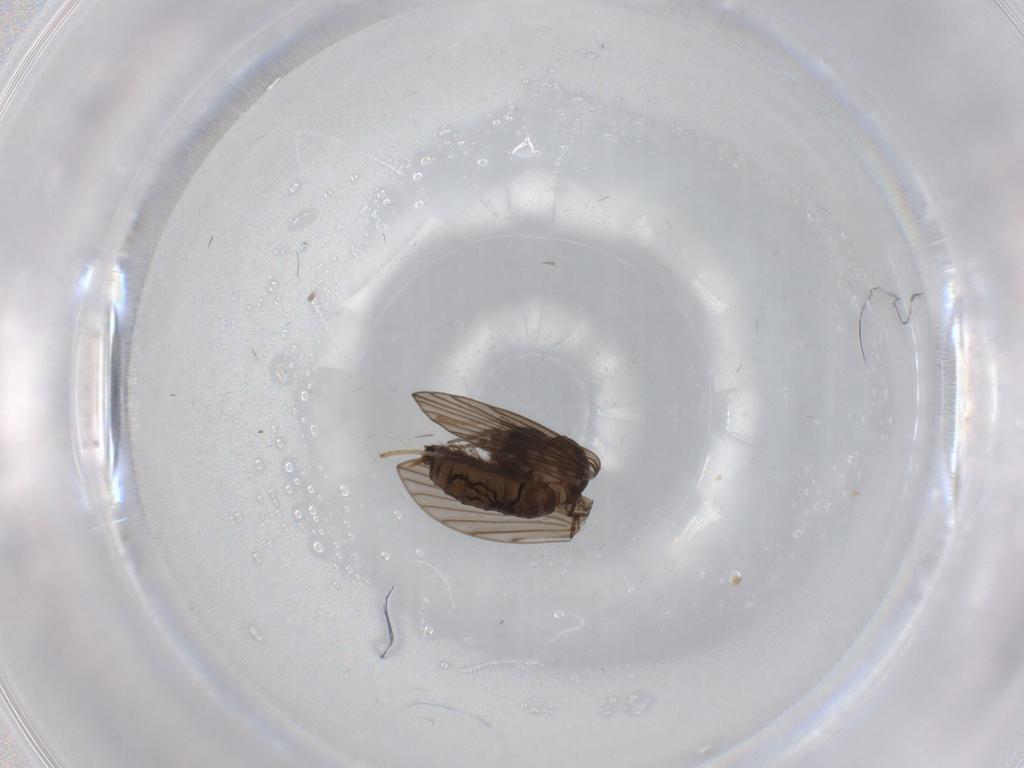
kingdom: Animalia
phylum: Arthropoda
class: Insecta
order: Diptera
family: Psychodidae
